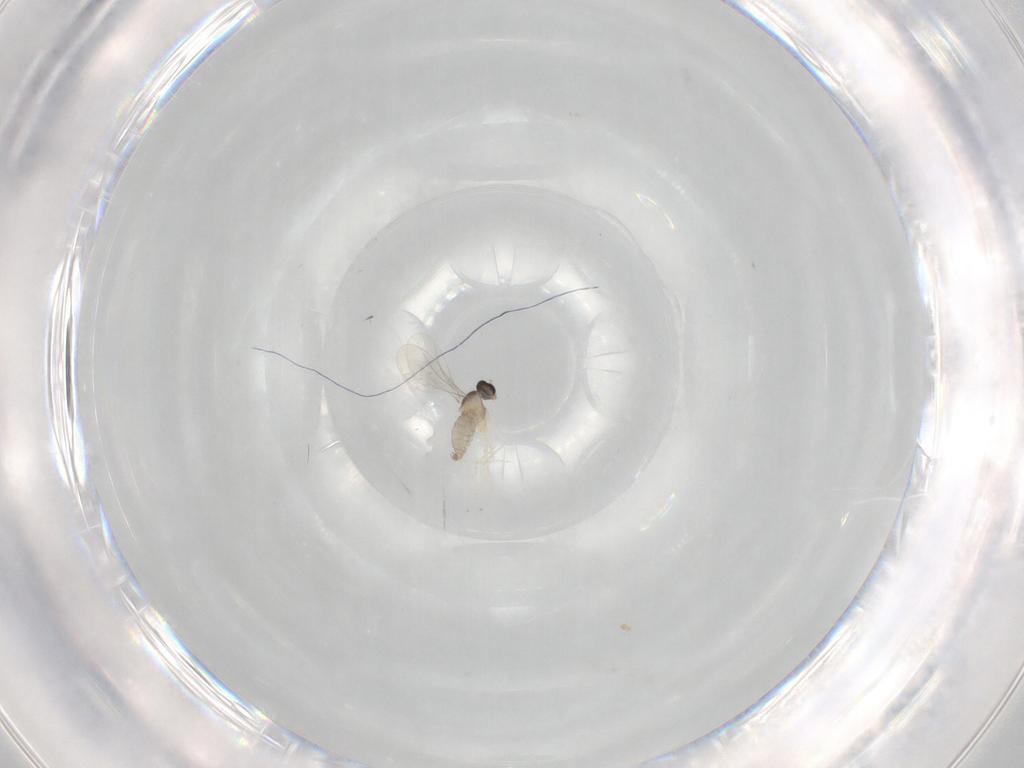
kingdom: Animalia
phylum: Arthropoda
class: Insecta
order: Diptera
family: Cecidomyiidae
